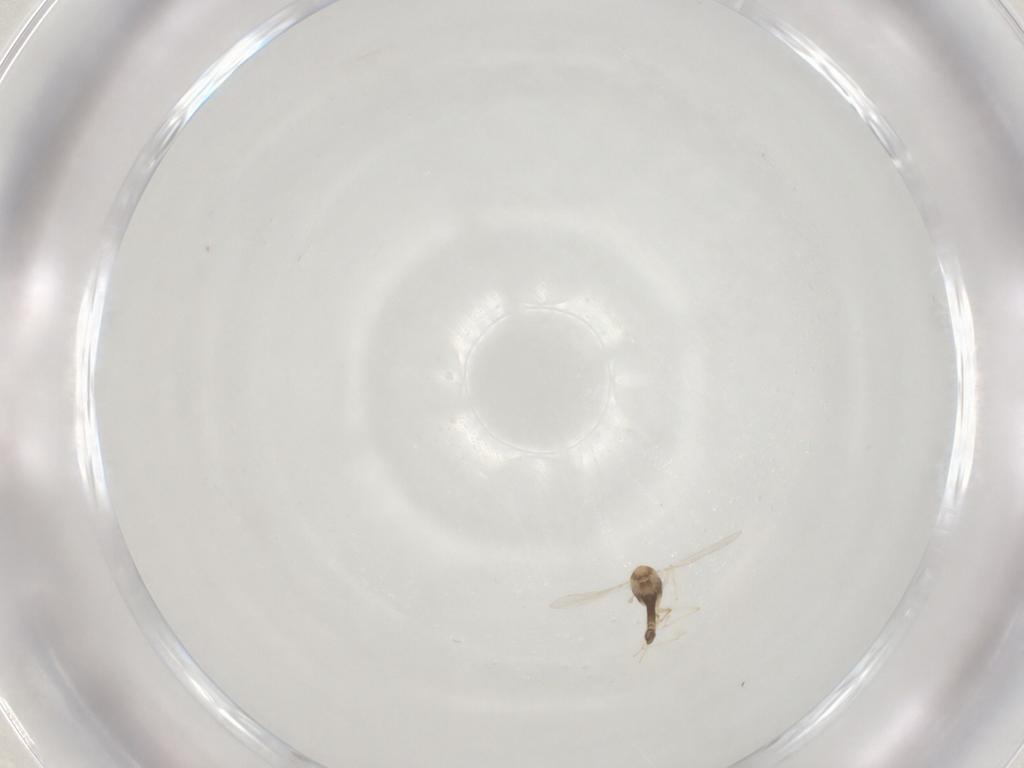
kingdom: Animalia
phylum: Arthropoda
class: Insecta
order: Diptera
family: Chironomidae
